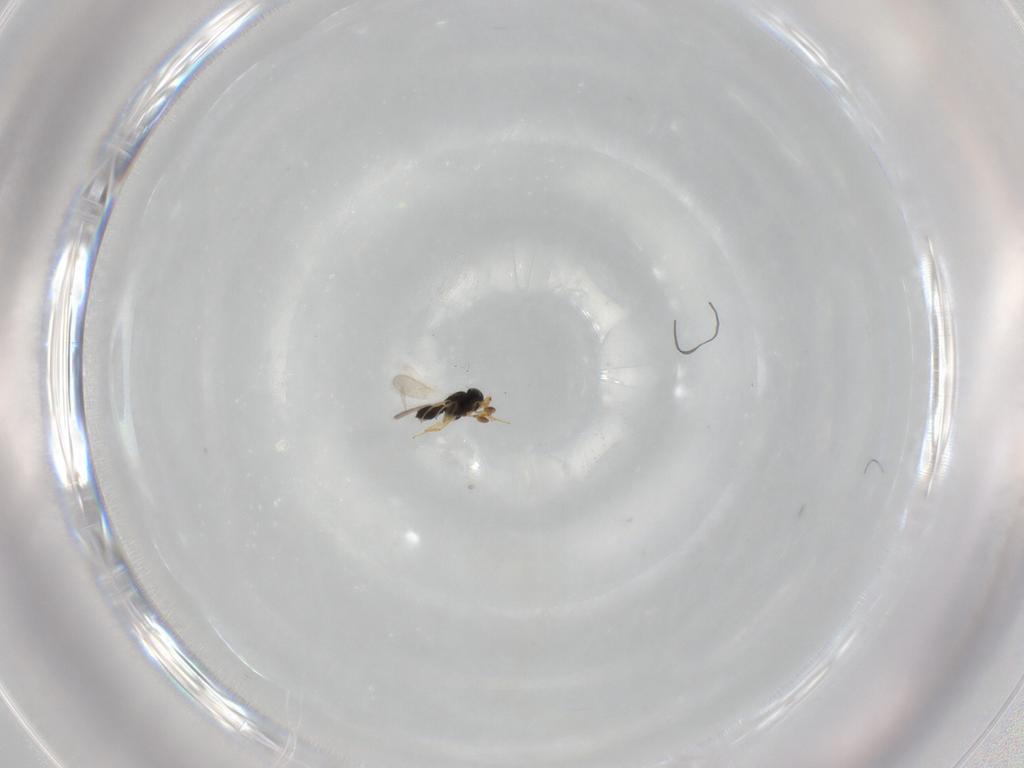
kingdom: Animalia
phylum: Arthropoda
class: Insecta
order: Hymenoptera
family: Scelionidae
